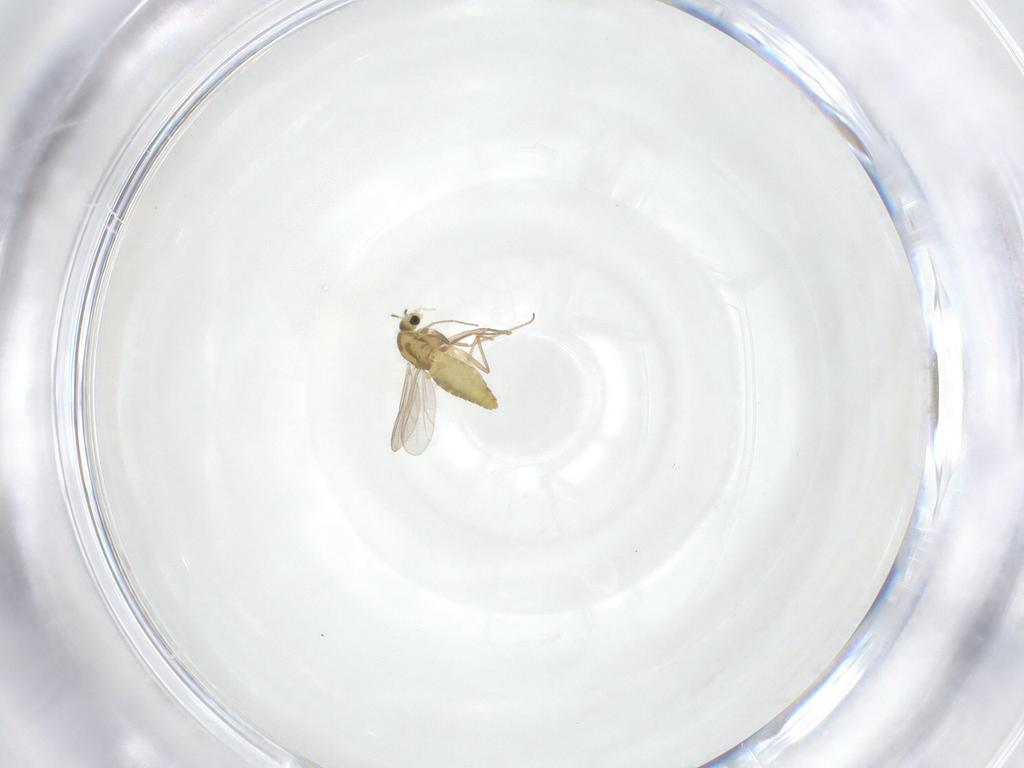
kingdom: Animalia
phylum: Arthropoda
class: Insecta
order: Diptera
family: Chironomidae
